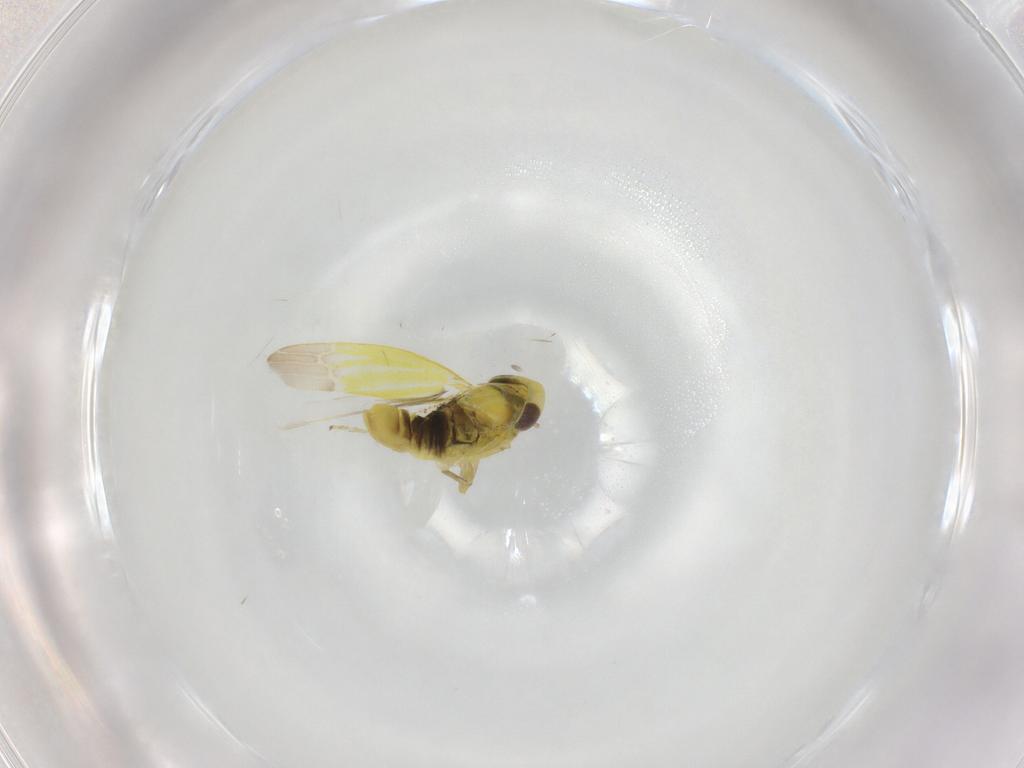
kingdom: Animalia
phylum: Arthropoda
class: Insecta
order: Hemiptera
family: Cicadellidae
